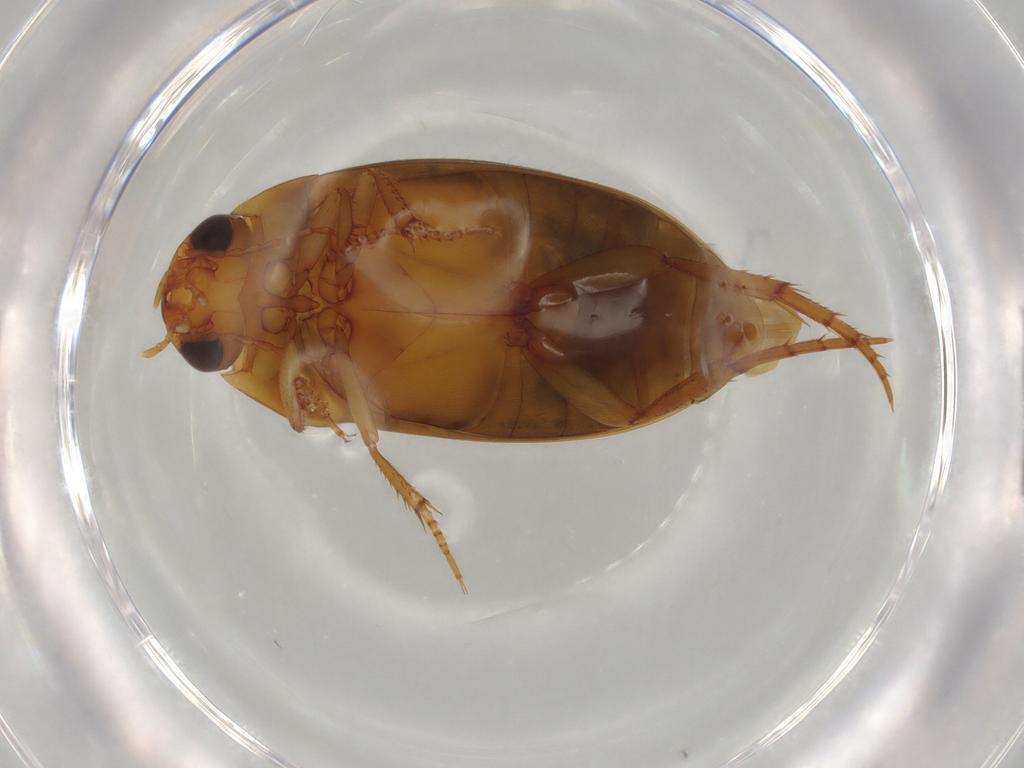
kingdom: Animalia
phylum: Arthropoda
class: Insecta
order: Coleoptera
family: Dytiscidae
